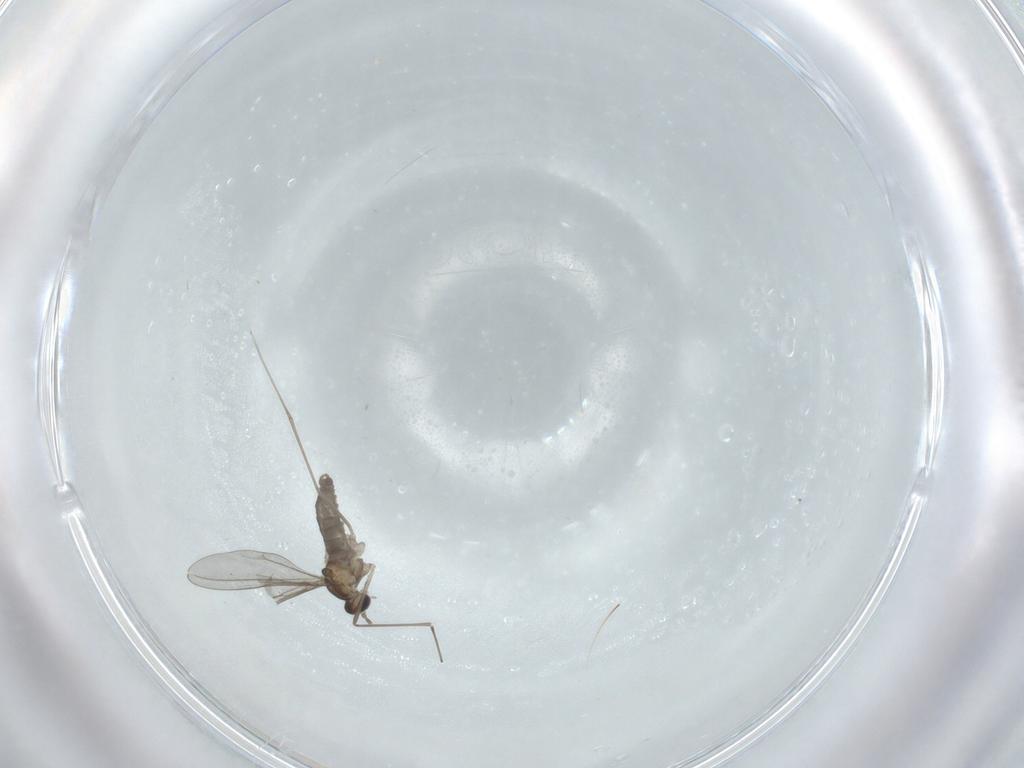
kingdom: Animalia
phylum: Arthropoda
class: Insecta
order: Diptera
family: Cecidomyiidae
